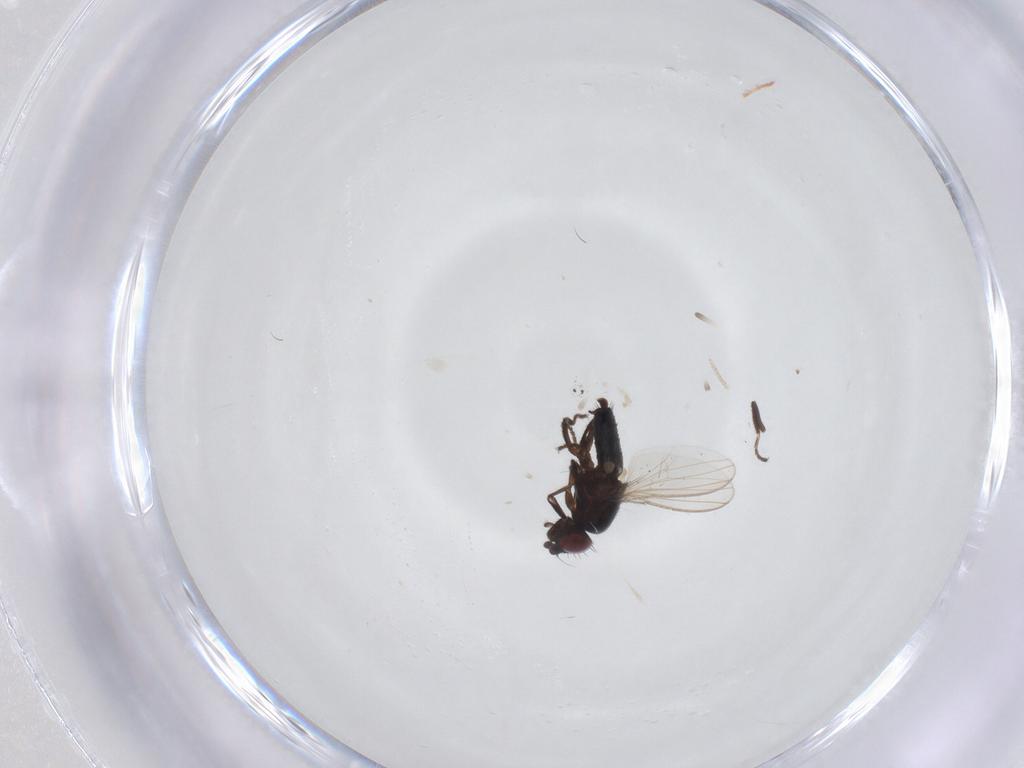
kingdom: Animalia
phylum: Arthropoda
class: Insecta
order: Diptera
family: Milichiidae
